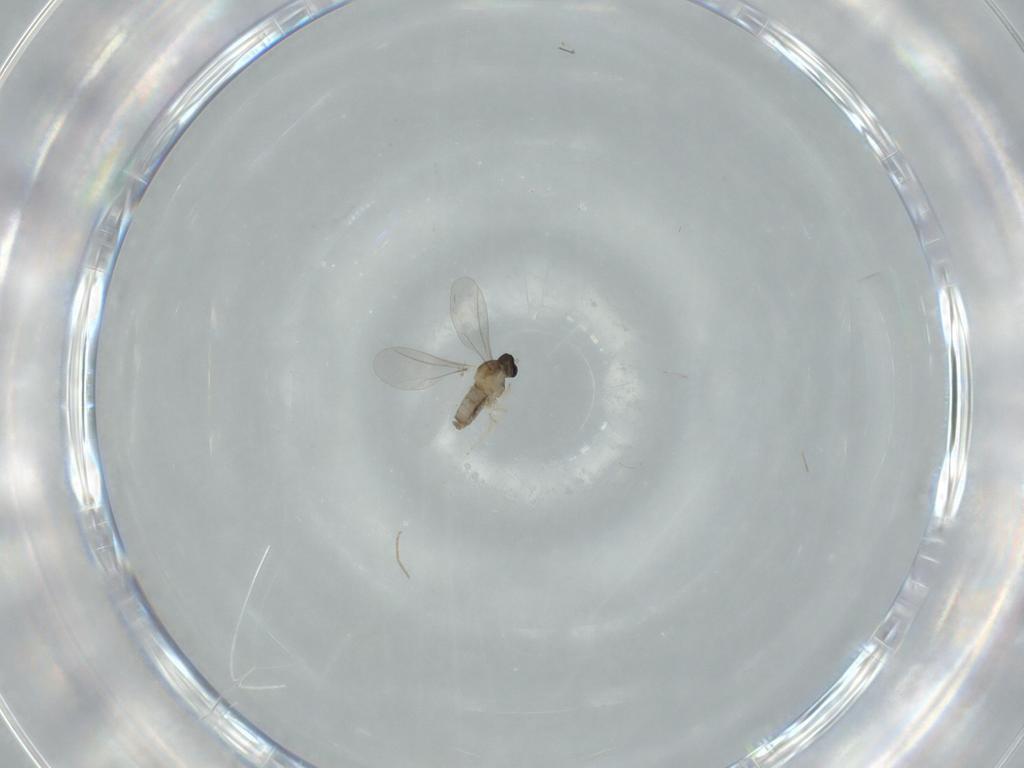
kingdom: Animalia
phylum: Arthropoda
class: Insecta
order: Diptera
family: Cecidomyiidae
